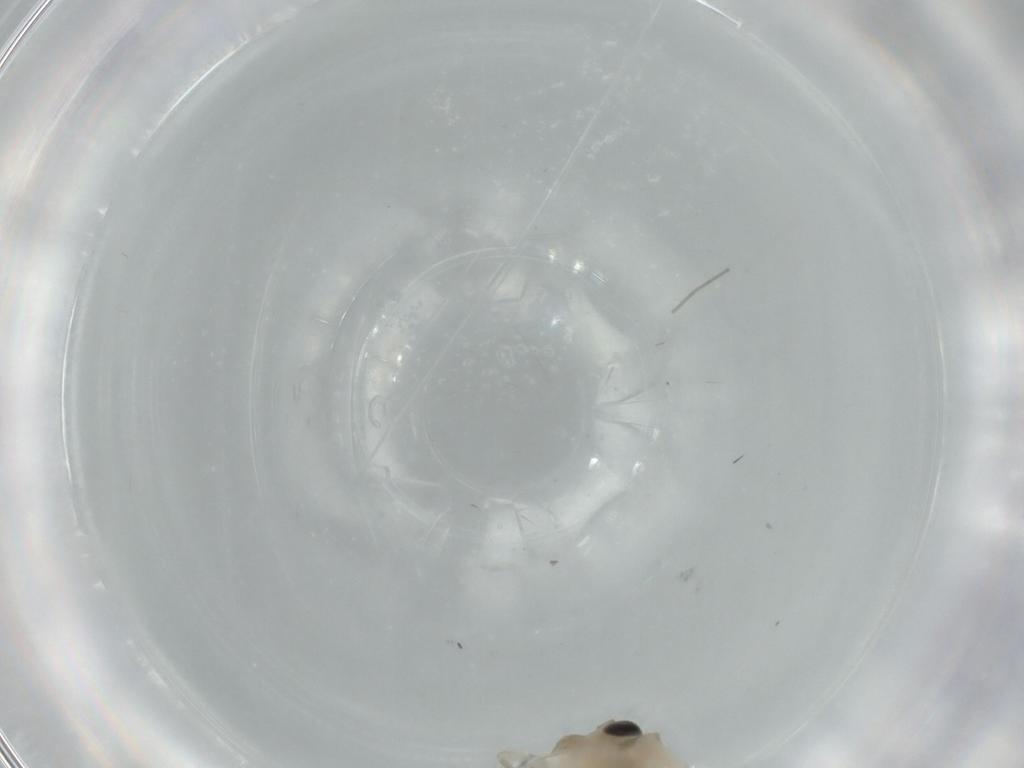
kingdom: Animalia
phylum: Arthropoda
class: Insecta
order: Psocodea
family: Caeciliusidae
